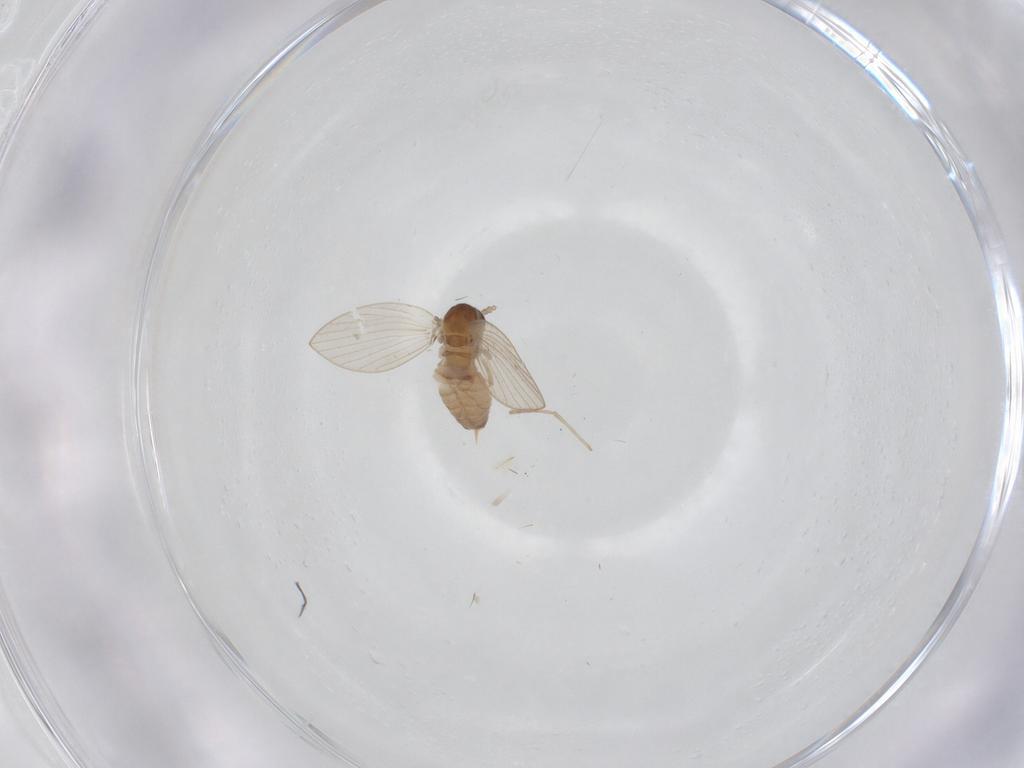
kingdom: Animalia
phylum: Arthropoda
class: Insecta
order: Diptera
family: Psychodidae
